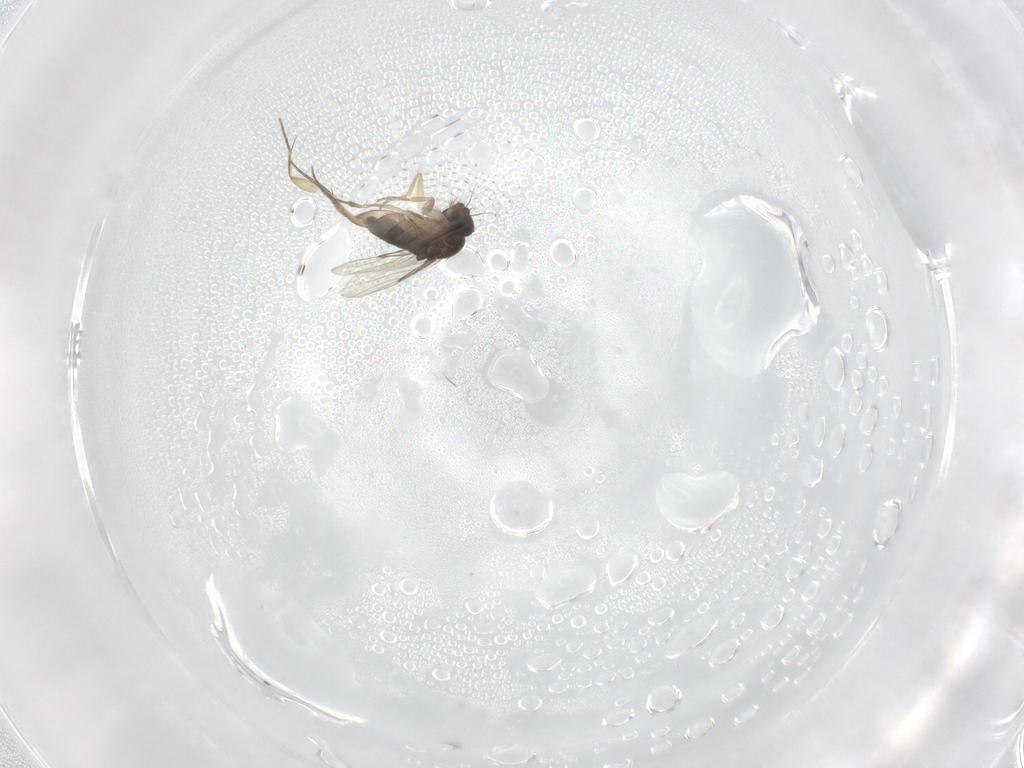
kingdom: Animalia
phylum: Arthropoda
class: Insecta
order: Diptera
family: Phoridae
